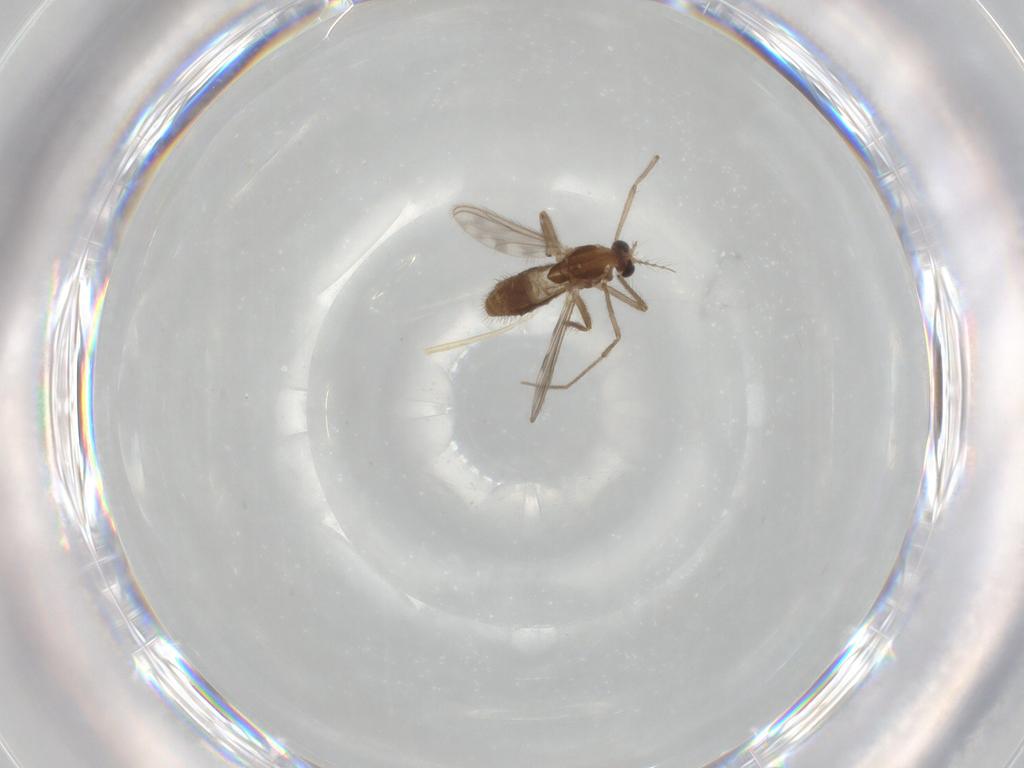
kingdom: Animalia
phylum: Arthropoda
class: Insecta
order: Diptera
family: Chironomidae
